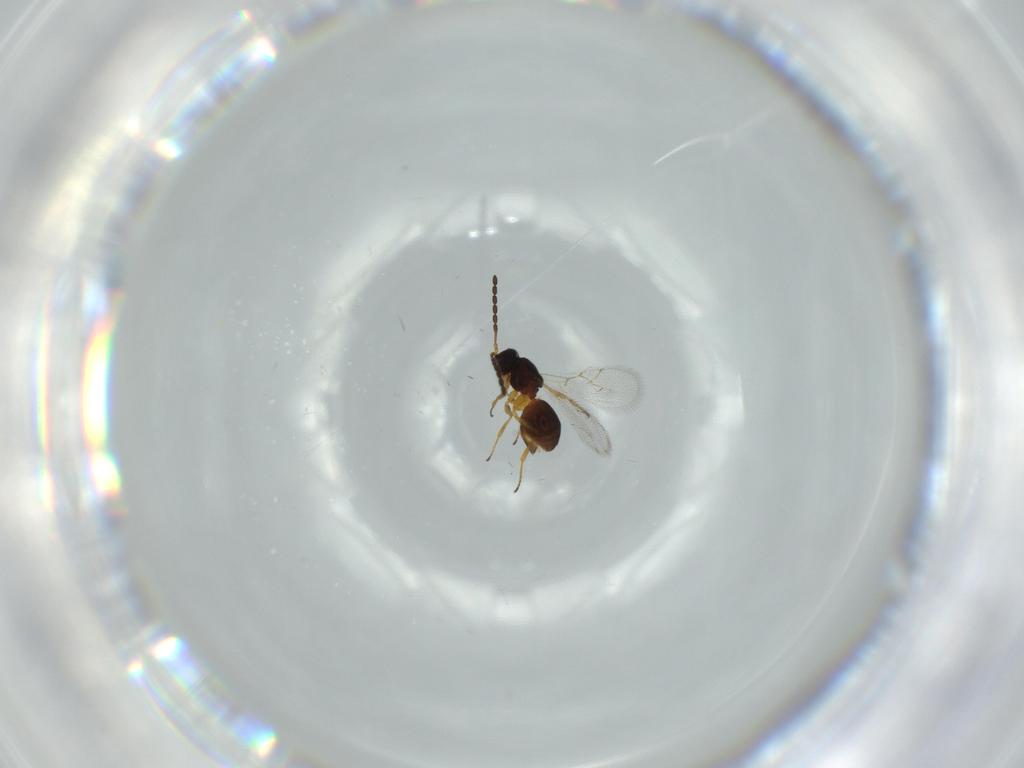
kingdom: Animalia
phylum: Arthropoda
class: Insecta
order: Hymenoptera
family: Figitidae
